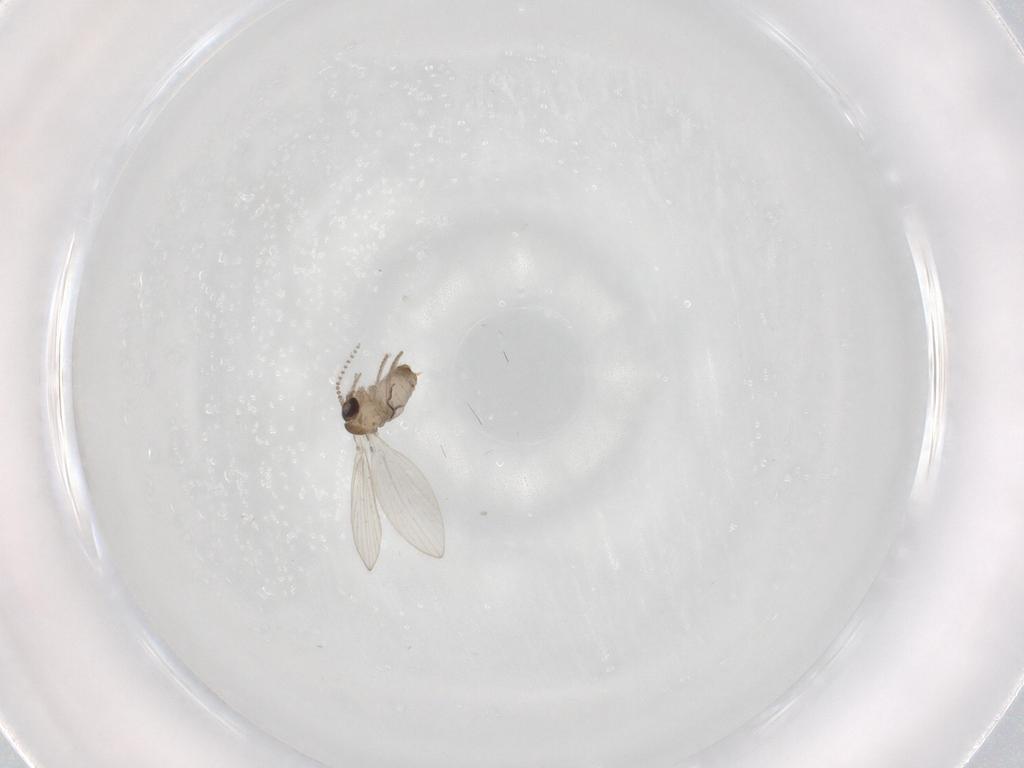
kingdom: Animalia
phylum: Arthropoda
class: Insecta
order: Diptera
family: Psychodidae
